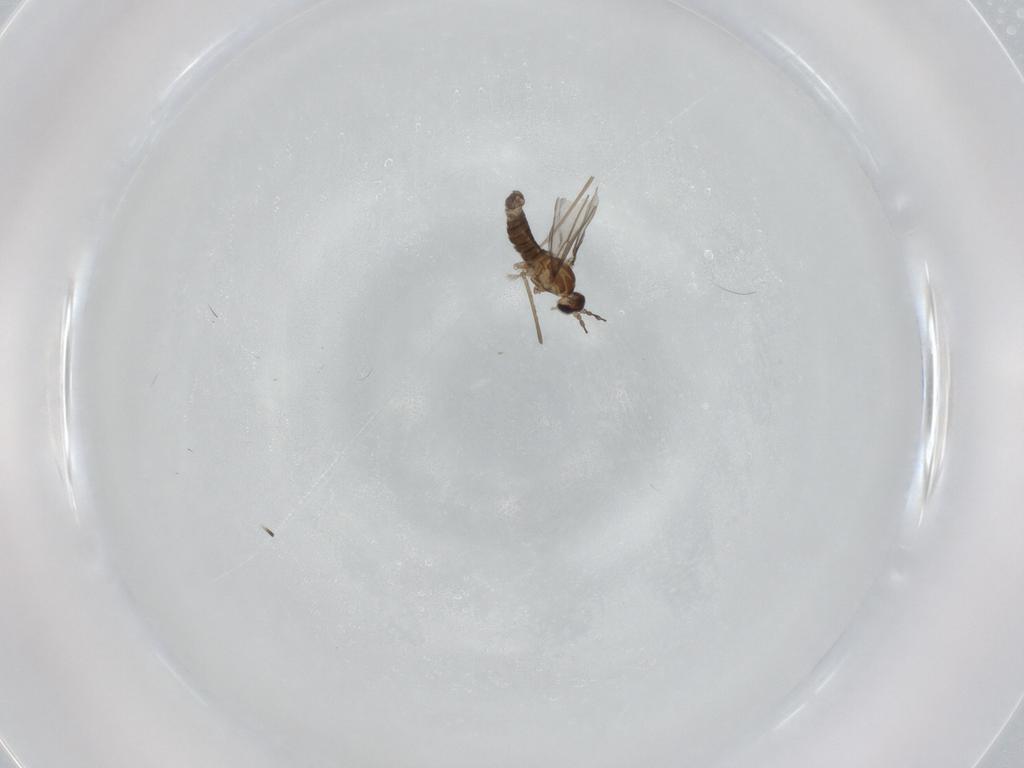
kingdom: Animalia
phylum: Arthropoda
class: Insecta
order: Diptera
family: Cecidomyiidae
